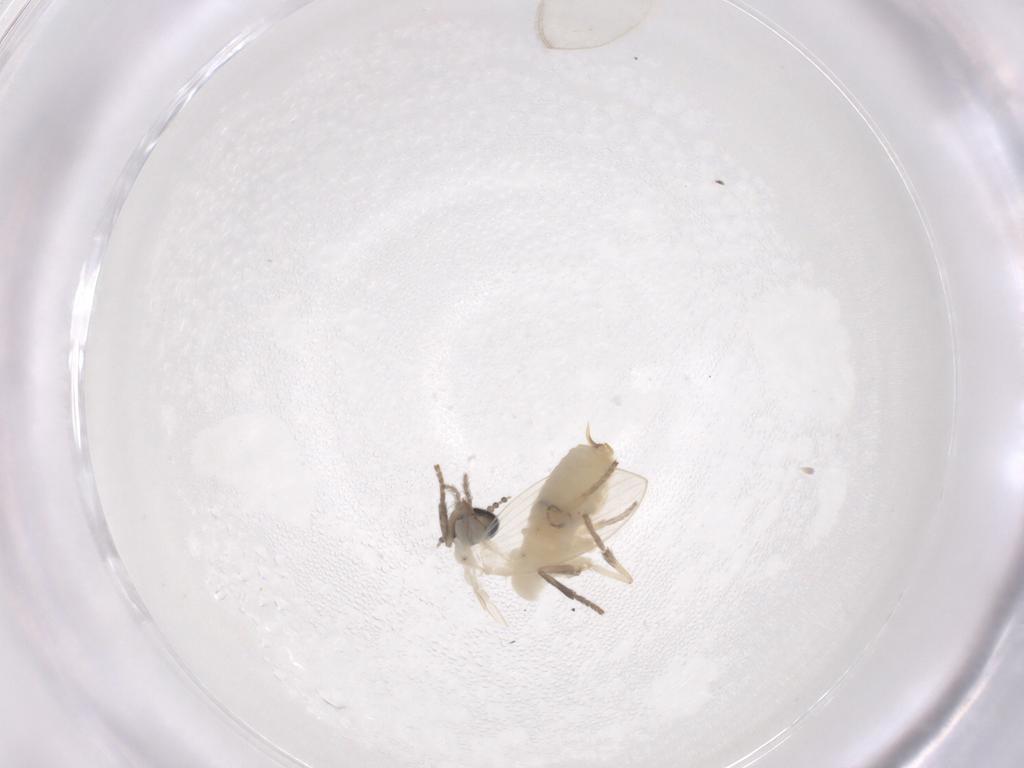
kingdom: Animalia
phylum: Arthropoda
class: Insecta
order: Diptera
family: Psychodidae
